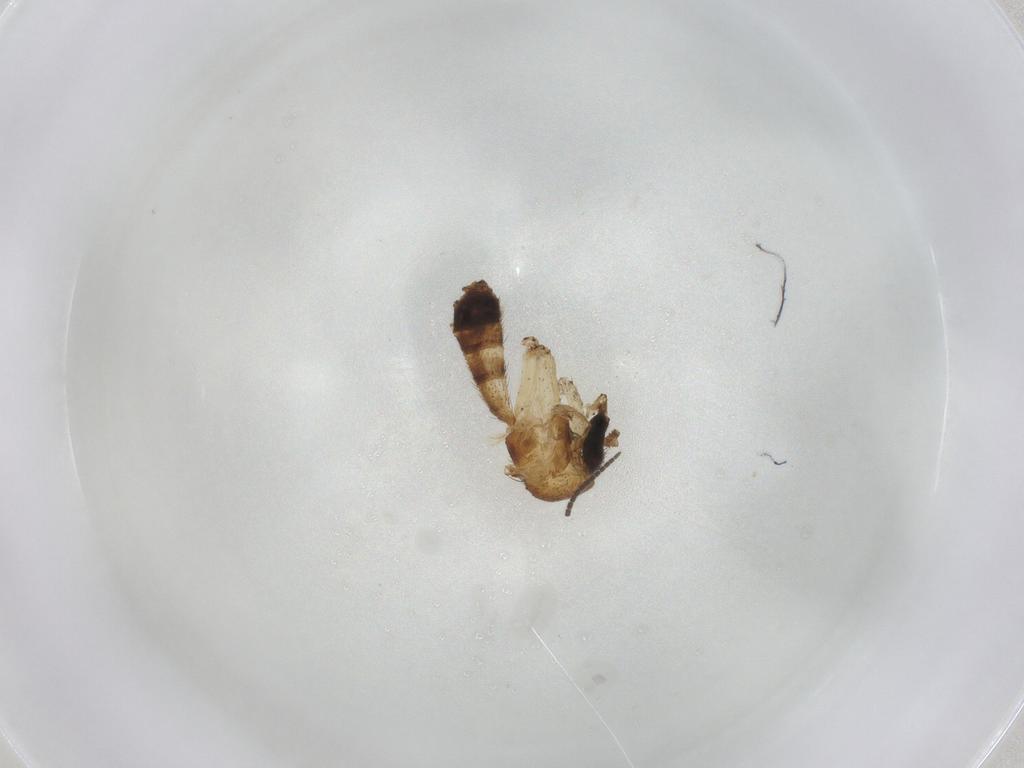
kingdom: Animalia
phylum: Arthropoda
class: Insecta
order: Diptera
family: Mycetophilidae
